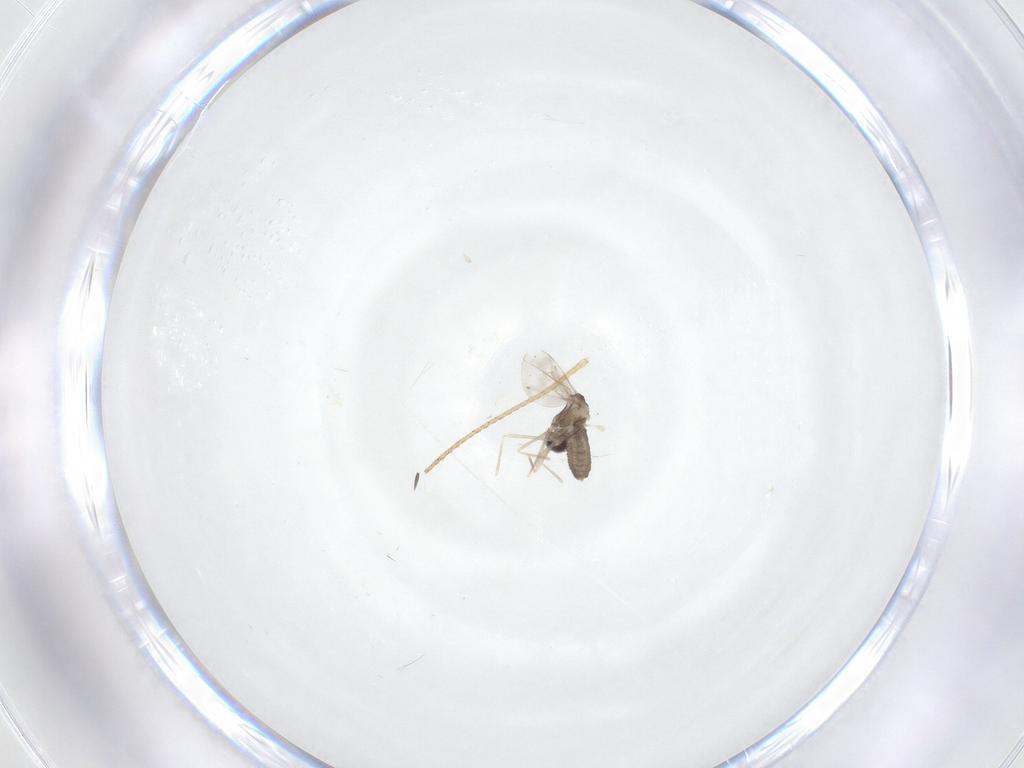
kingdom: Animalia
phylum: Arthropoda
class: Insecta
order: Diptera
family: Cecidomyiidae
